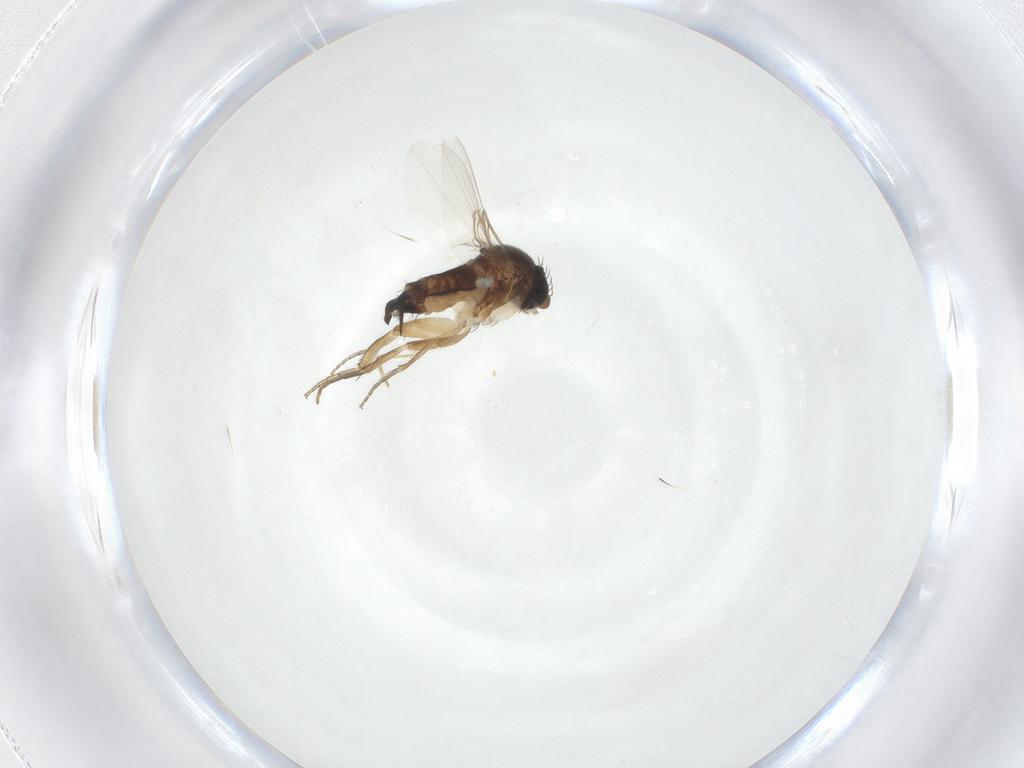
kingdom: Animalia
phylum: Arthropoda
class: Insecta
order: Diptera
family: Phoridae
